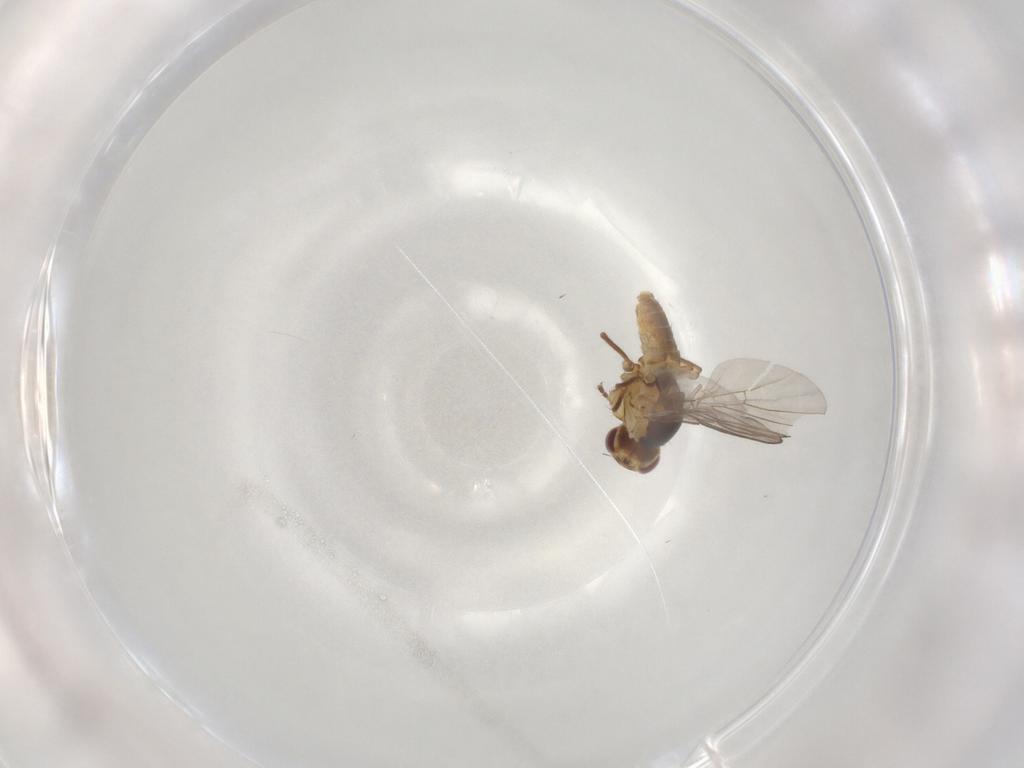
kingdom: Animalia
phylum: Arthropoda
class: Insecta
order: Diptera
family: Agromyzidae
